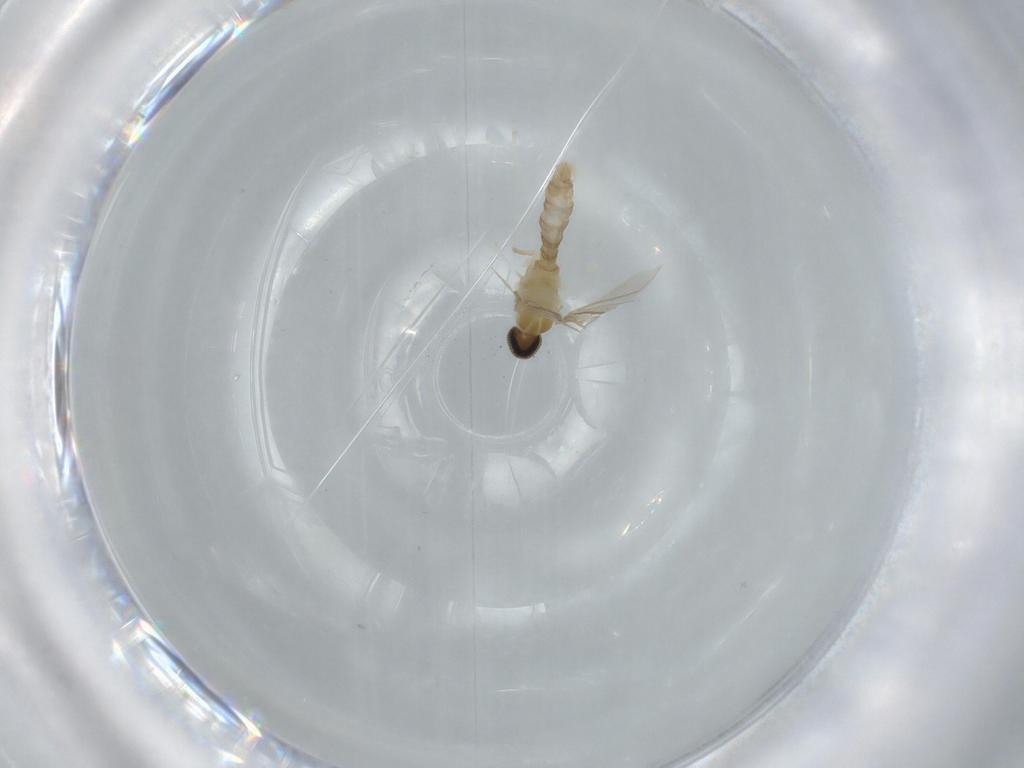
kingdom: Animalia
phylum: Arthropoda
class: Insecta
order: Diptera
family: Cecidomyiidae
